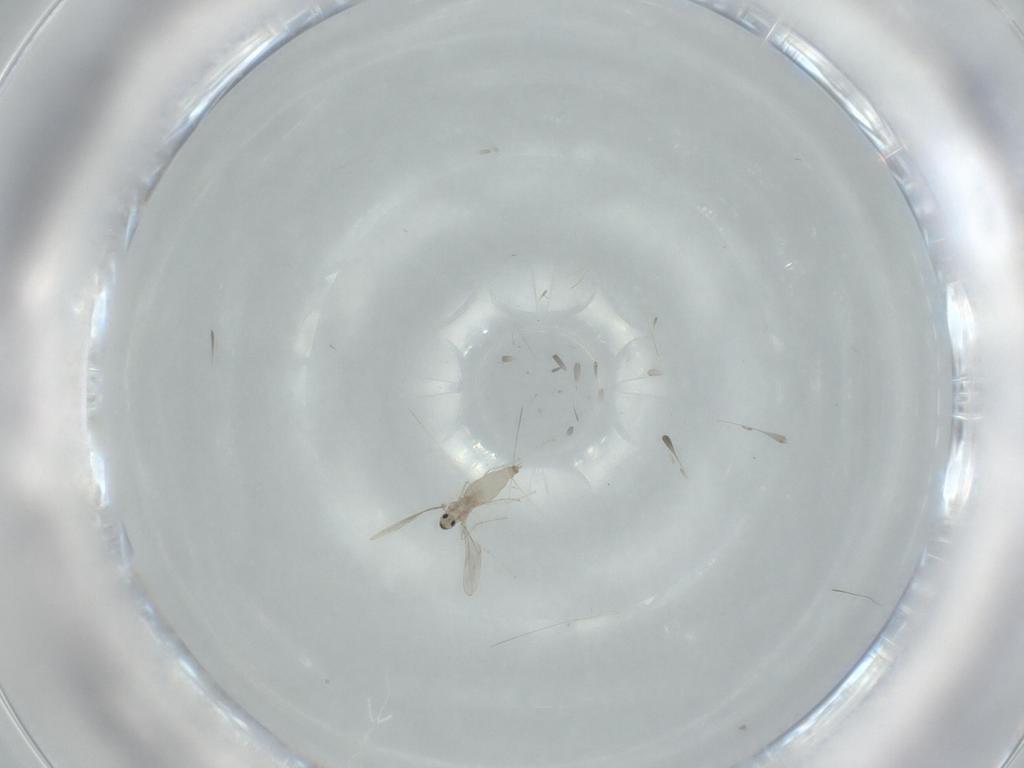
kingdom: Animalia
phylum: Arthropoda
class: Insecta
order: Diptera
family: Cecidomyiidae
